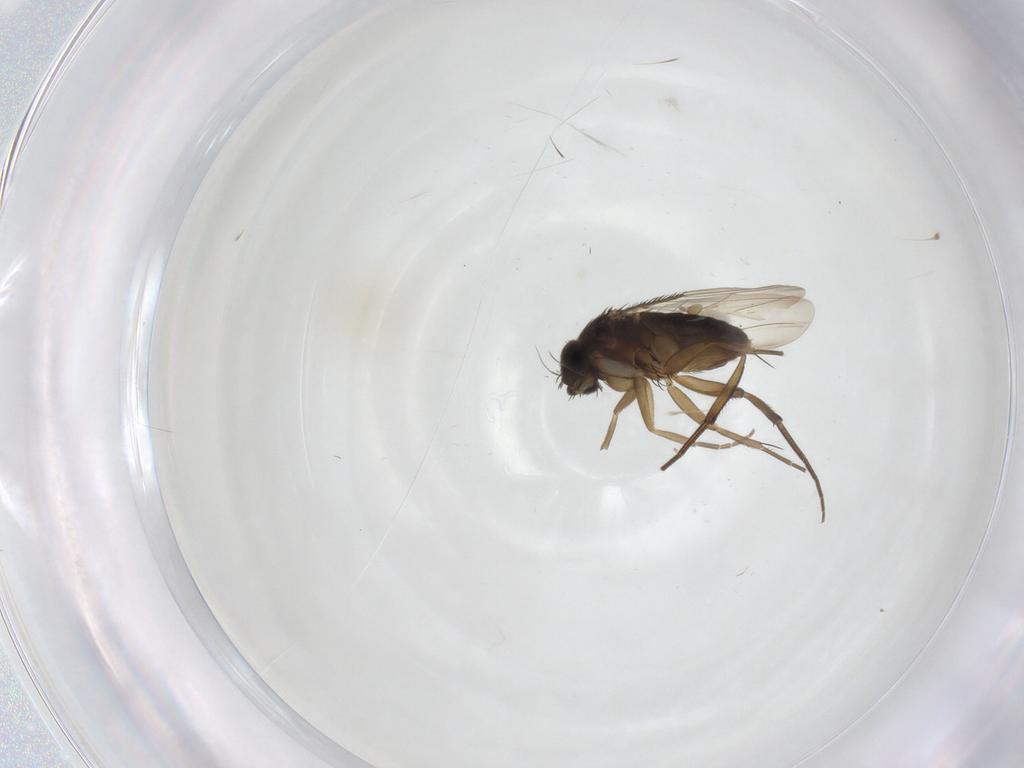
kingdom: Animalia
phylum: Arthropoda
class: Insecta
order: Diptera
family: Phoridae
